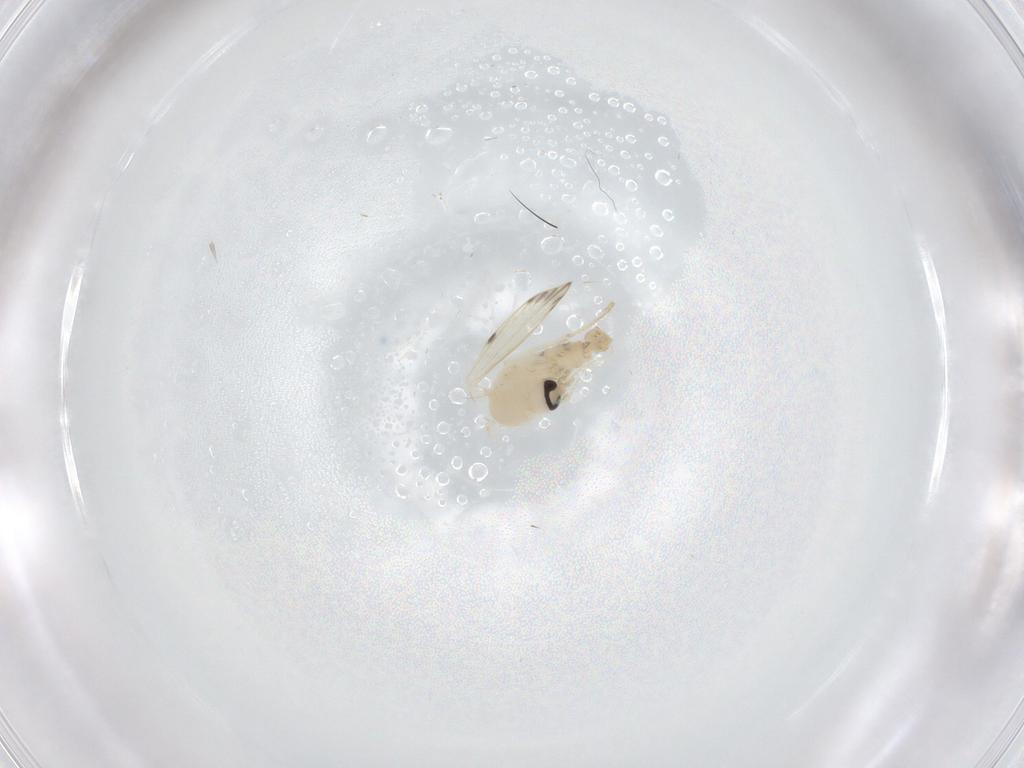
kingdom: Animalia
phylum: Arthropoda
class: Insecta
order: Diptera
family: Psychodidae
